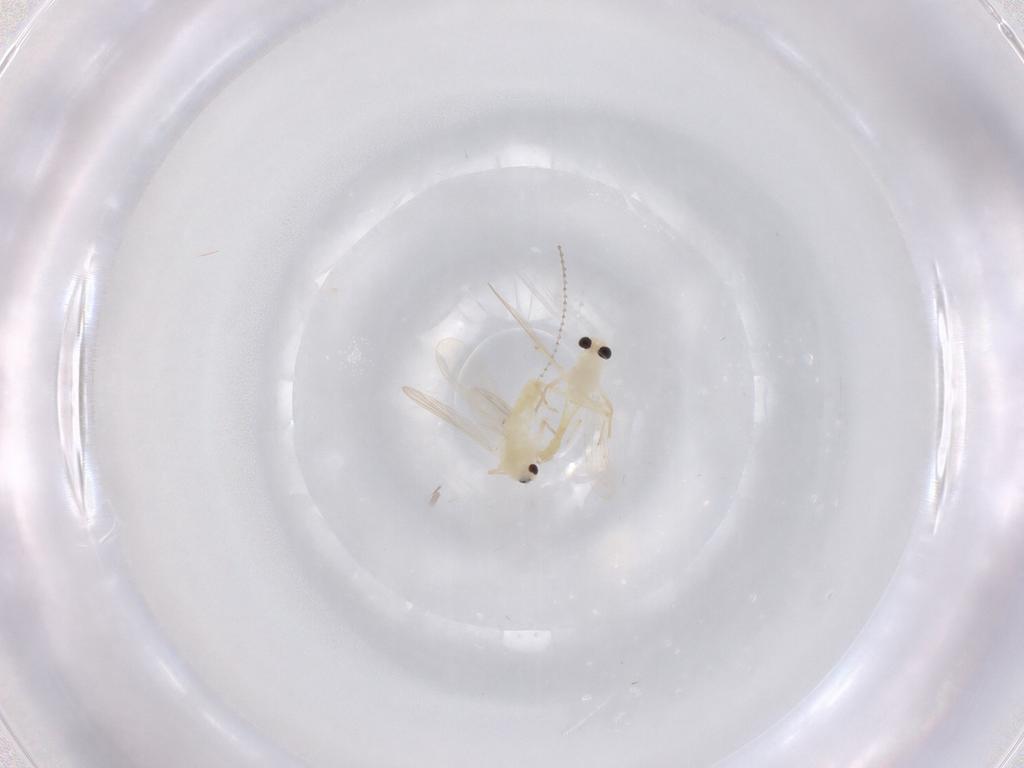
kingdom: Animalia
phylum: Arthropoda
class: Insecta
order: Diptera
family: Chironomidae
